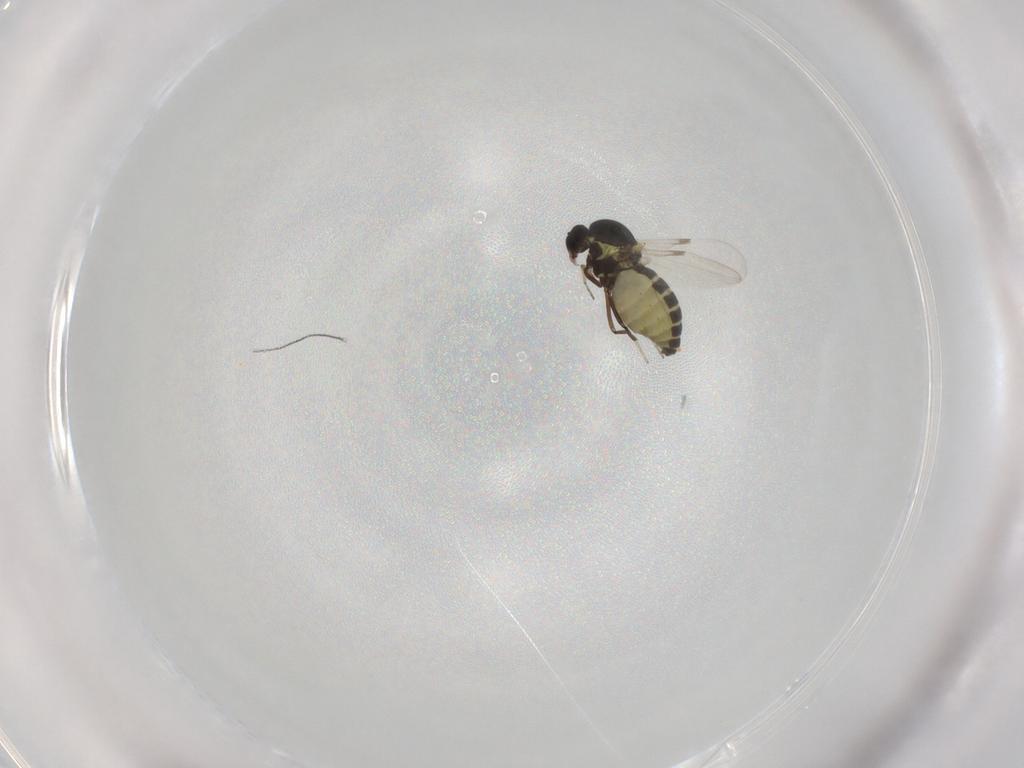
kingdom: Animalia
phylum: Arthropoda
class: Insecta
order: Diptera
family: Ceratopogonidae
